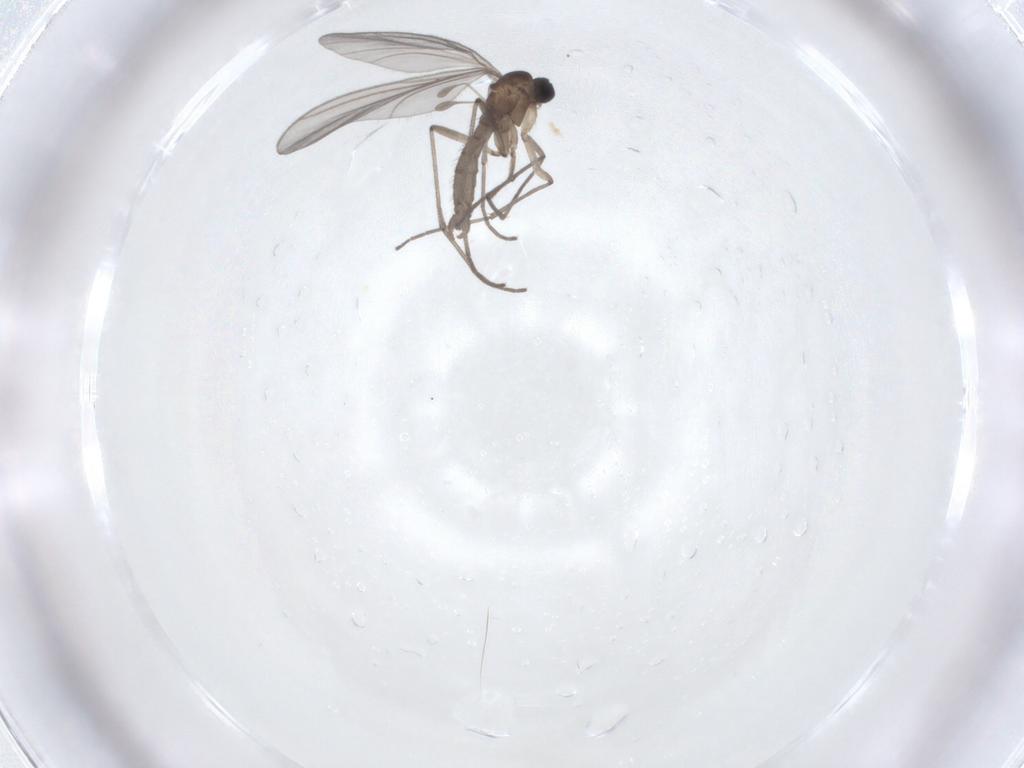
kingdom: Animalia
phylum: Arthropoda
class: Insecta
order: Diptera
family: Sciaridae
